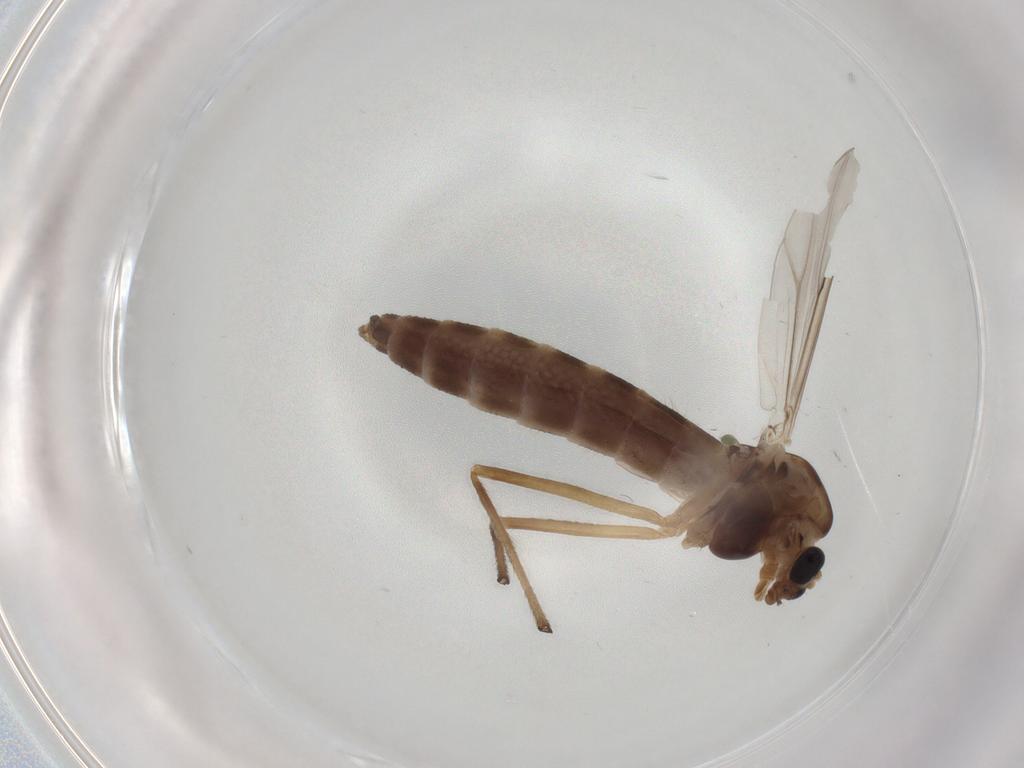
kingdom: Animalia
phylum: Arthropoda
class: Insecta
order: Diptera
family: Chironomidae
